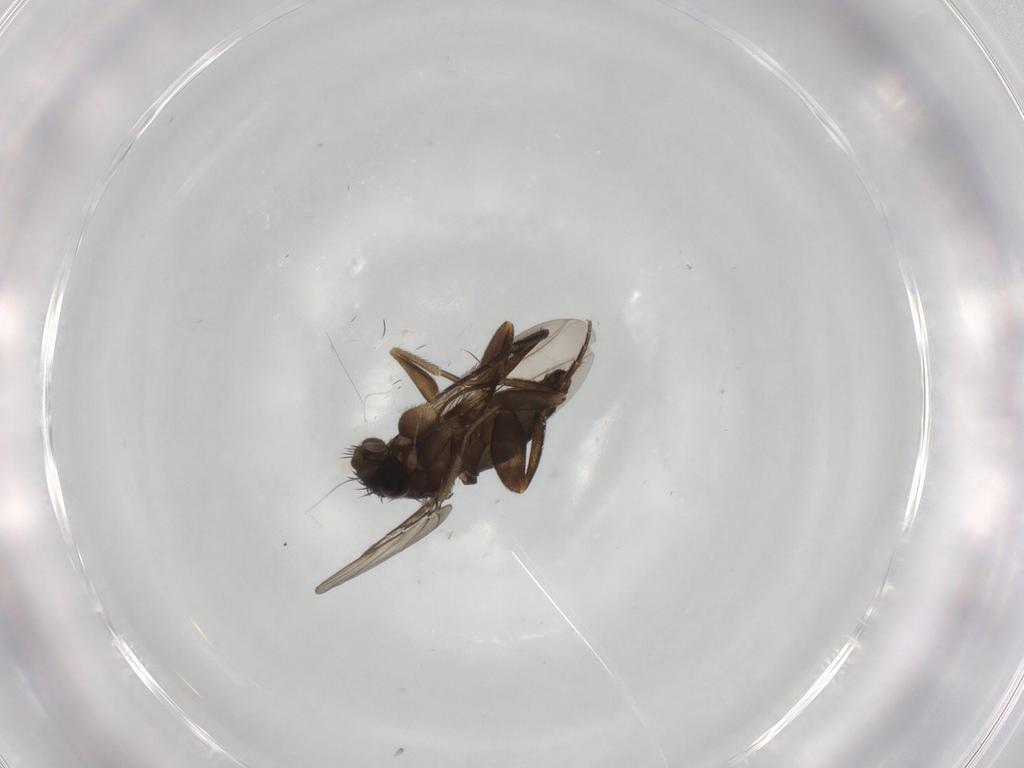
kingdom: Animalia
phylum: Arthropoda
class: Insecta
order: Diptera
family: Phoridae
